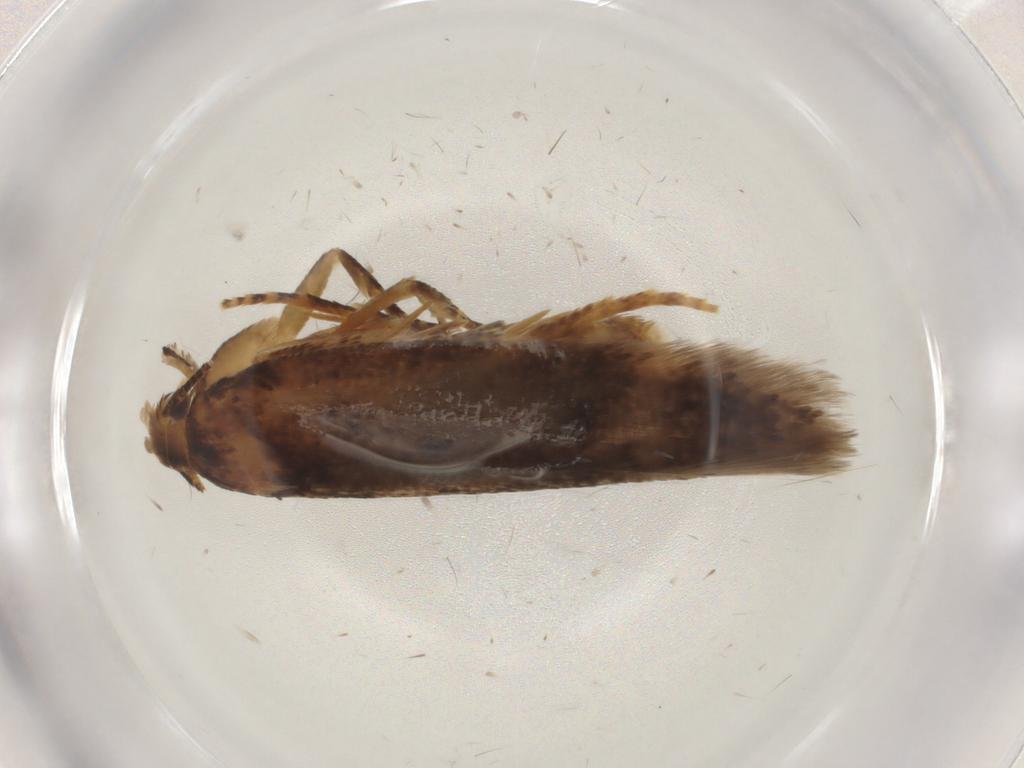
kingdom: Animalia
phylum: Arthropoda
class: Insecta
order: Lepidoptera
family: Gelechiidae
